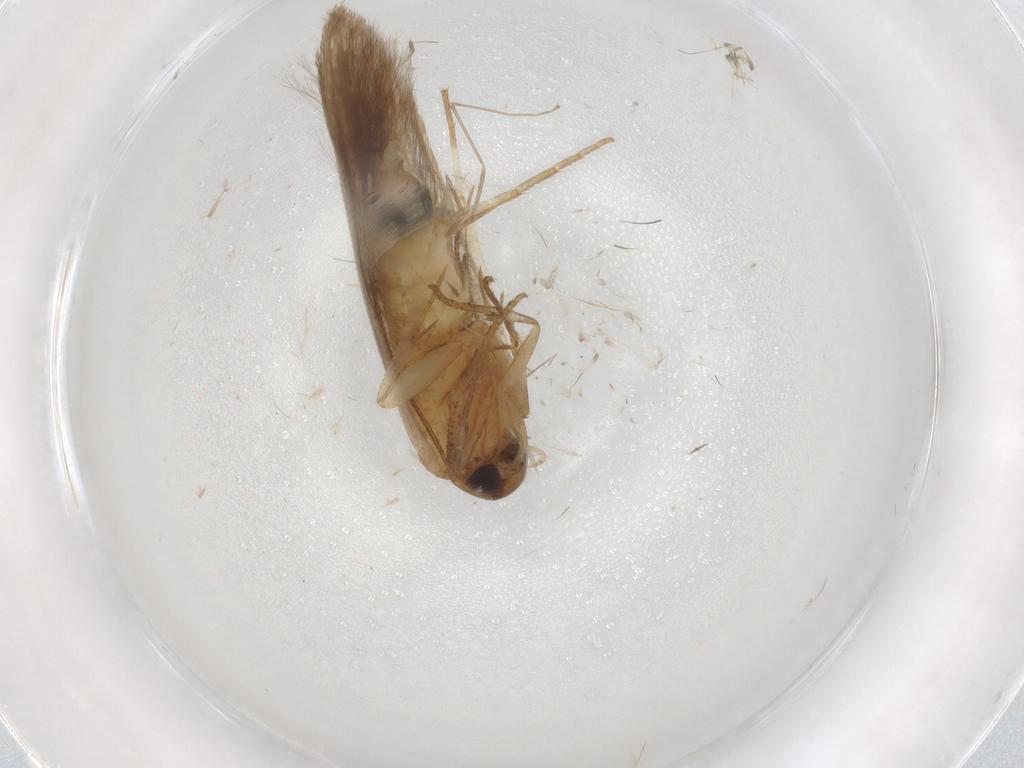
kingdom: Animalia
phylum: Arthropoda
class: Insecta
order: Lepidoptera
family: Cosmopterigidae
